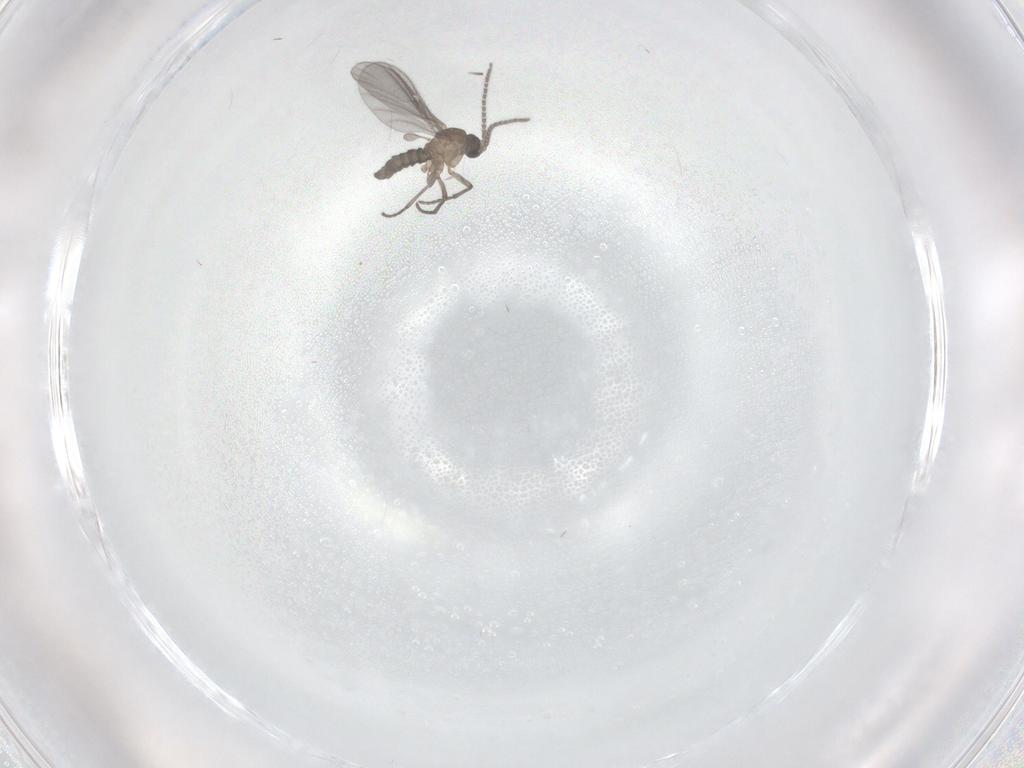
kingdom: Animalia
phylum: Arthropoda
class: Insecta
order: Diptera
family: Sciaridae
